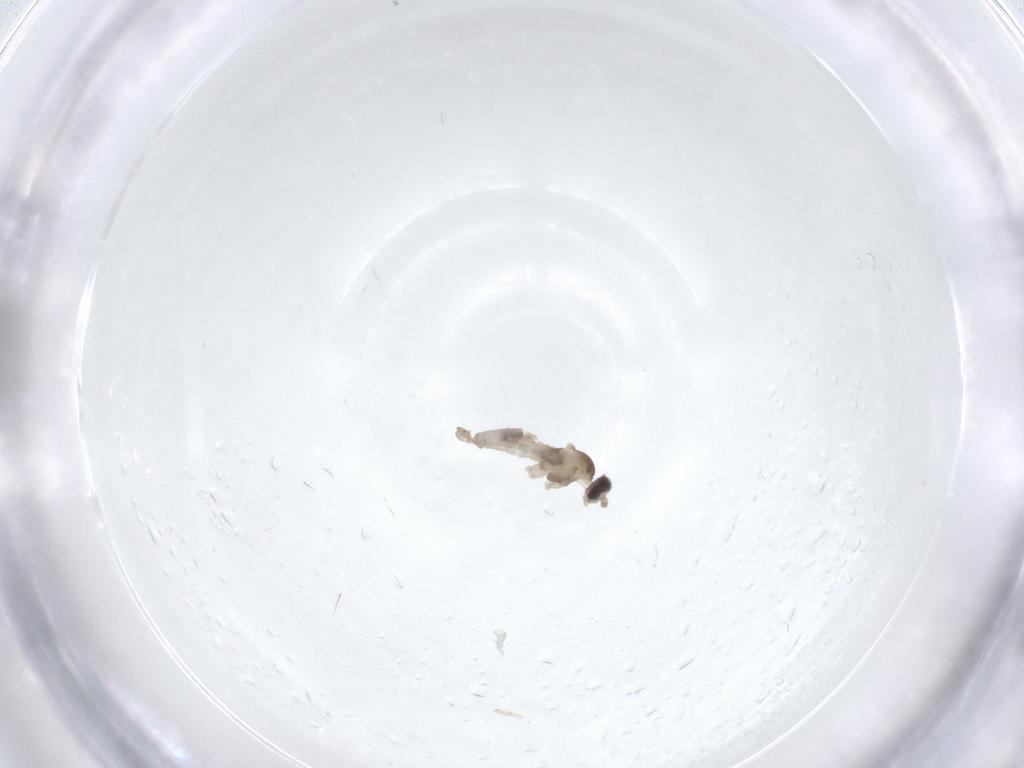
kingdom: Animalia
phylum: Arthropoda
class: Insecta
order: Diptera
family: Cecidomyiidae
